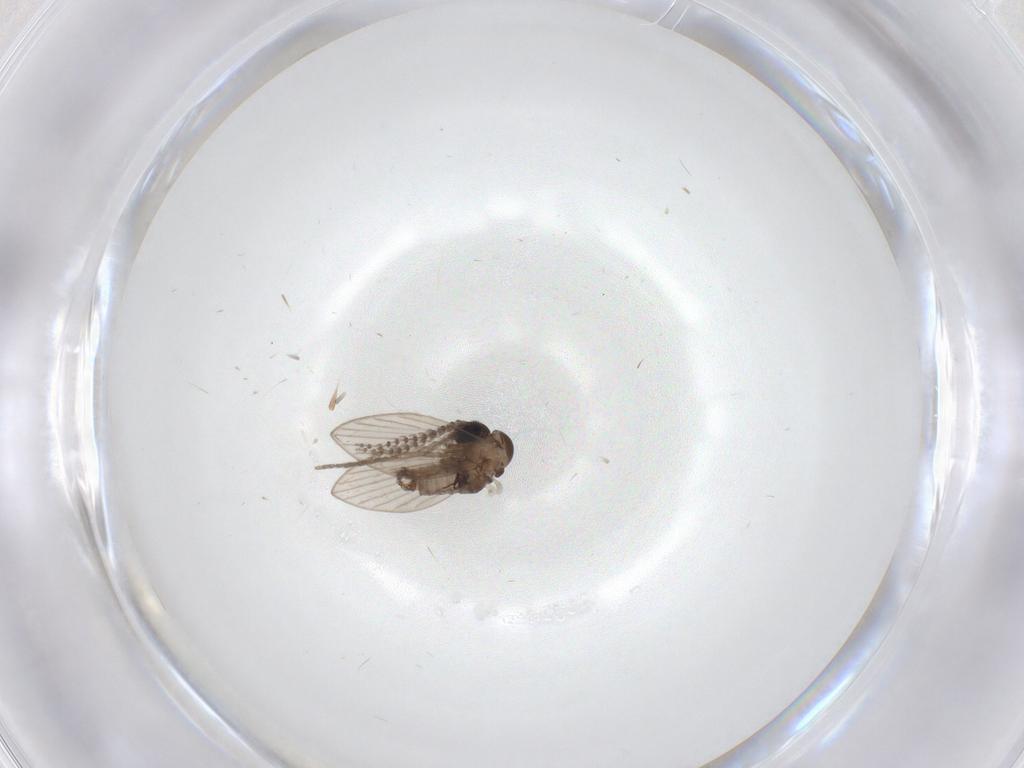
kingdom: Animalia
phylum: Arthropoda
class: Insecta
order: Diptera
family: Psychodidae
